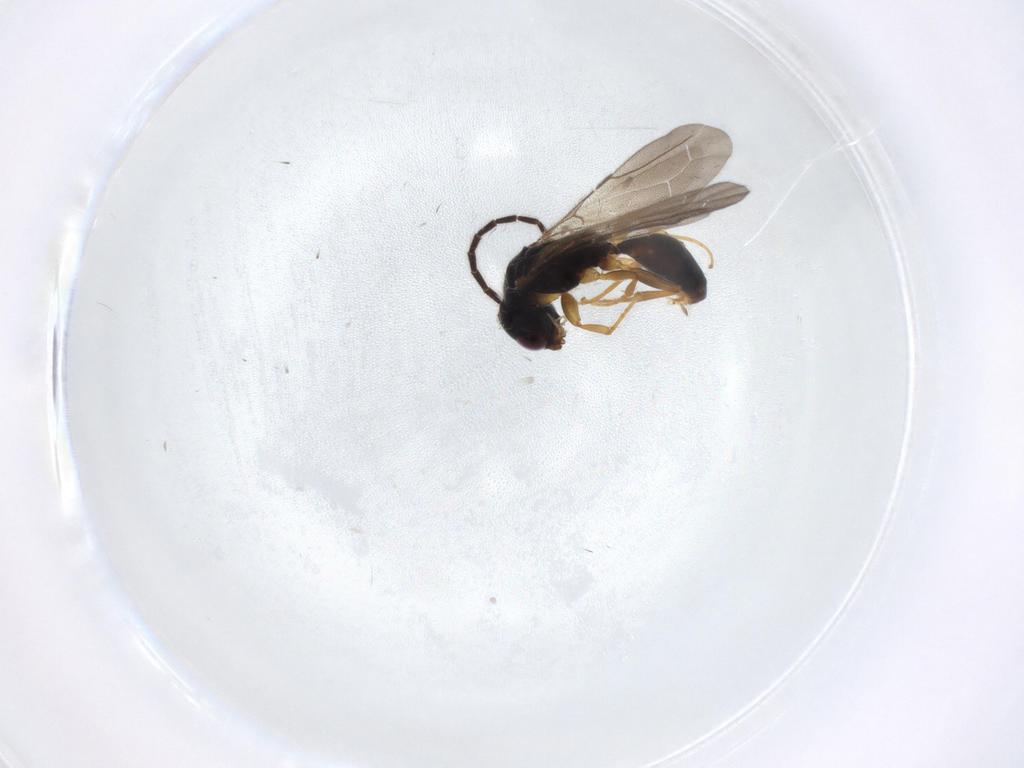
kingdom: Animalia
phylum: Arthropoda
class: Insecta
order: Hymenoptera
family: Bethylidae
